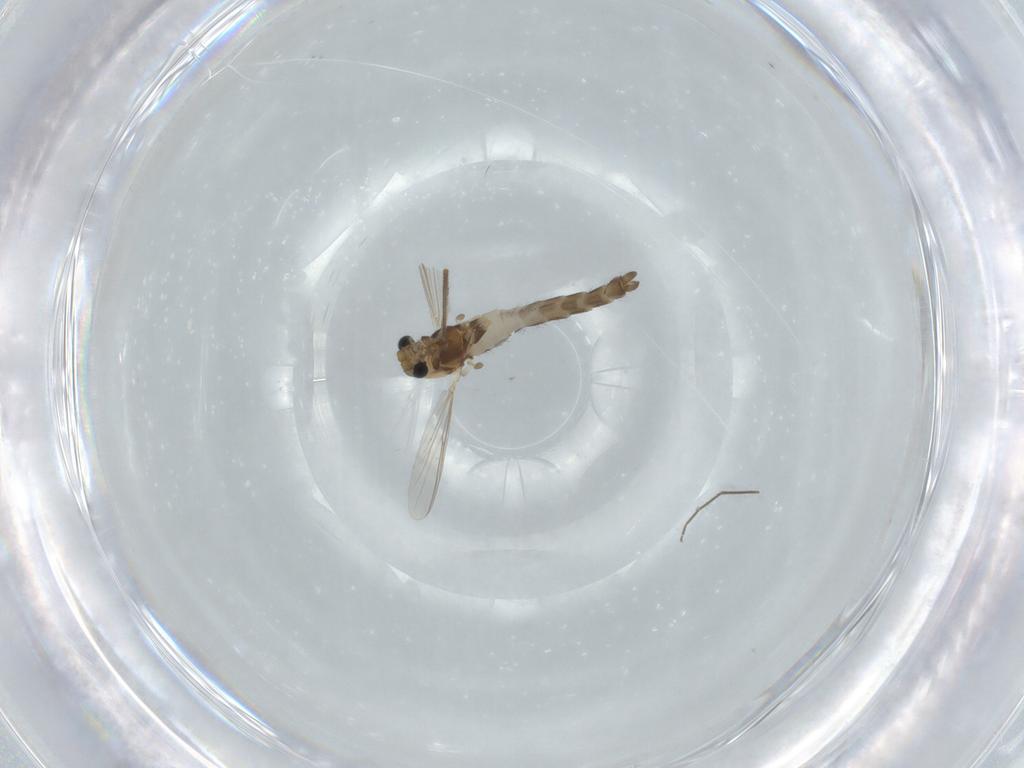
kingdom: Animalia
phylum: Arthropoda
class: Insecta
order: Diptera
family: Chironomidae
